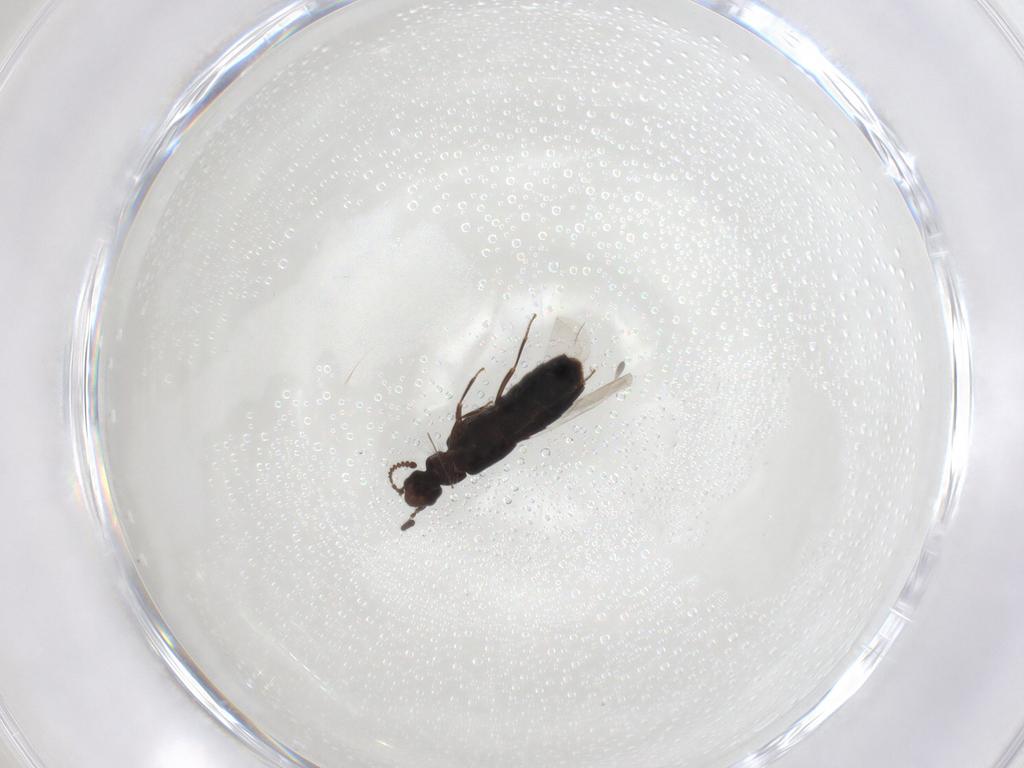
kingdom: Animalia
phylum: Arthropoda
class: Insecta
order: Coleoptera
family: Staphylinidae
